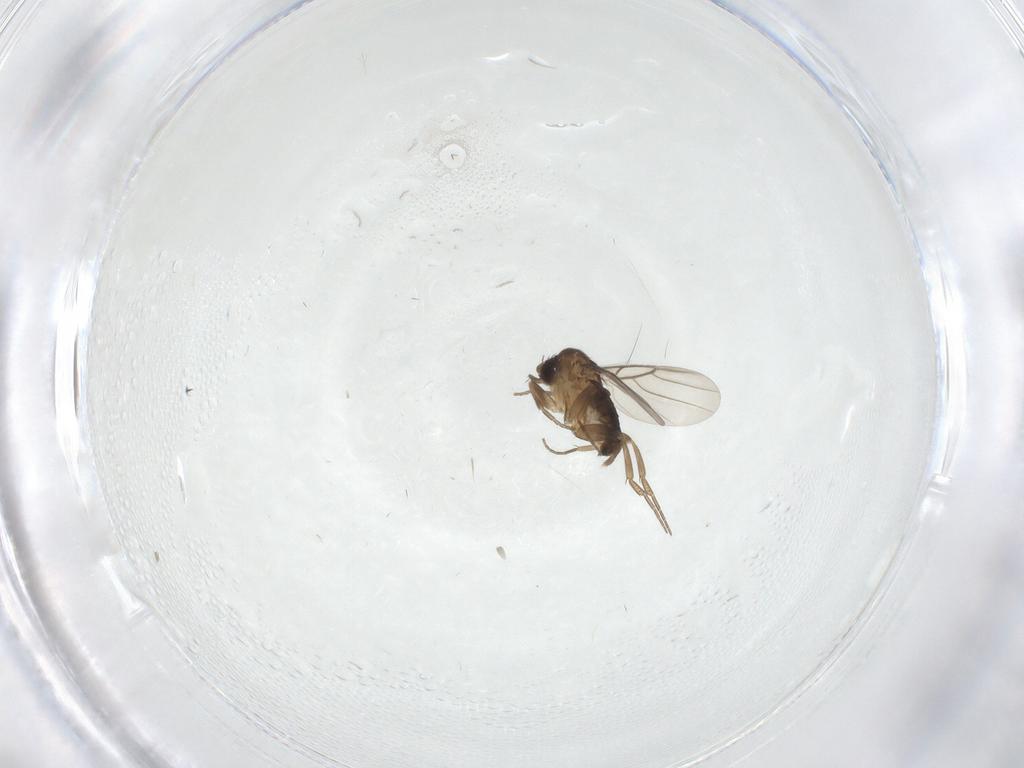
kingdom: Animalia
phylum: Arthropoda
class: Insecta
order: Diptera
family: Phoridae
